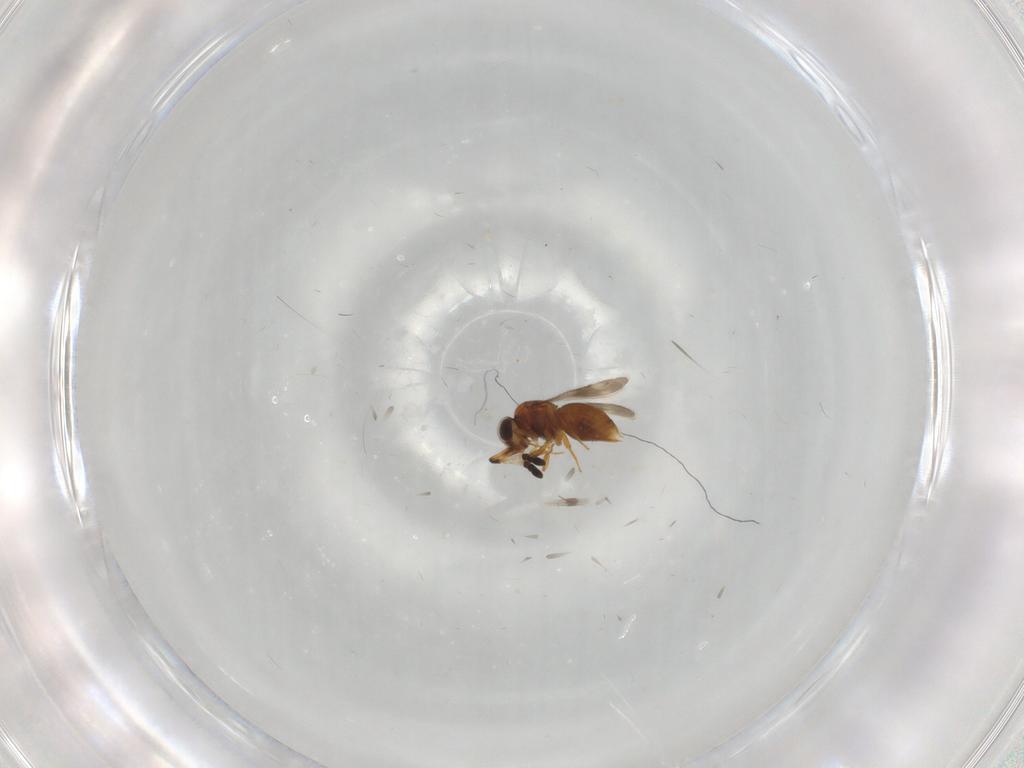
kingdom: Animalia
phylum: Arthropoda
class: Insecta
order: Hymenoptera
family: Ceraphronidae
